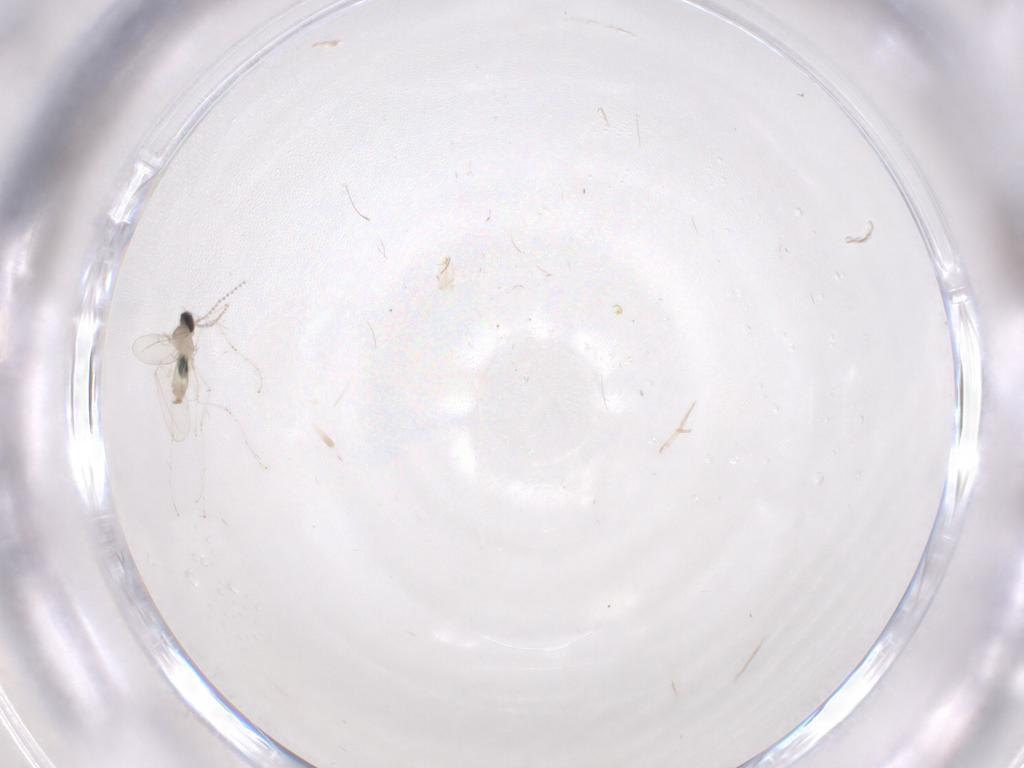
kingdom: Animalia
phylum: Arthropoda
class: Insecta
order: Diptera
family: Cecidomyiidae
